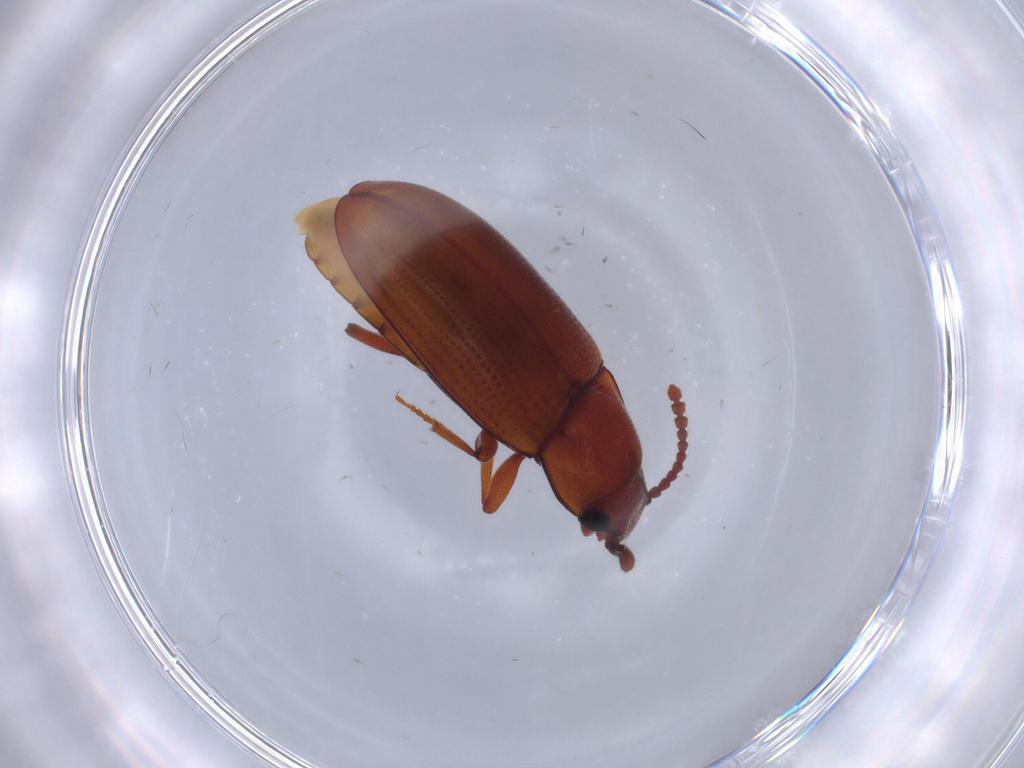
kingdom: Animalia
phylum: Arthropoda
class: Insecta
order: Coleoptera
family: Erotylidae
